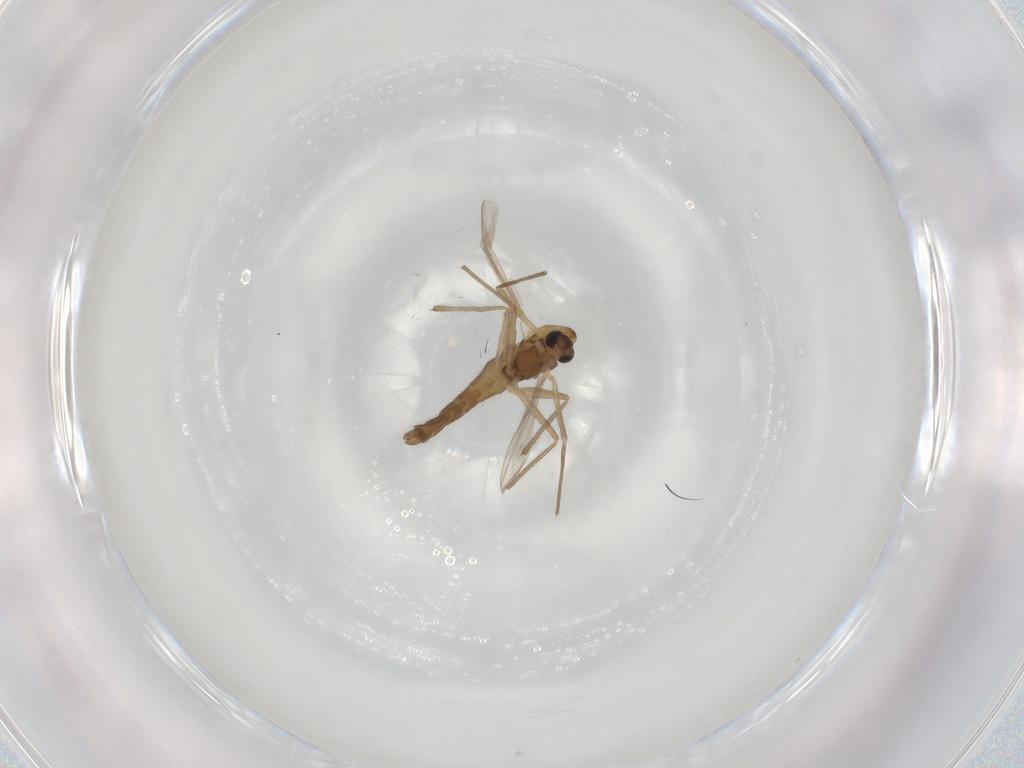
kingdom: Animalia
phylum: Arthropoda
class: Insecta
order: Diptera
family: Chironomidae
